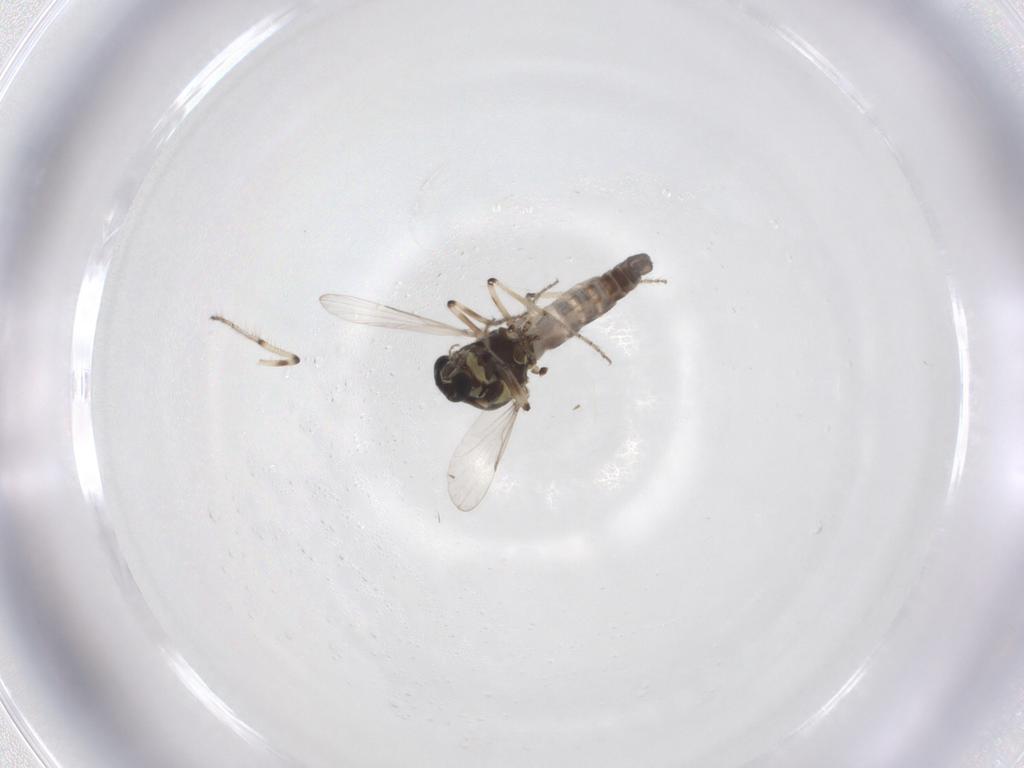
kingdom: Animalia
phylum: Arthropoda
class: Insecta
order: Diptera
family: Ceratopogonidae
